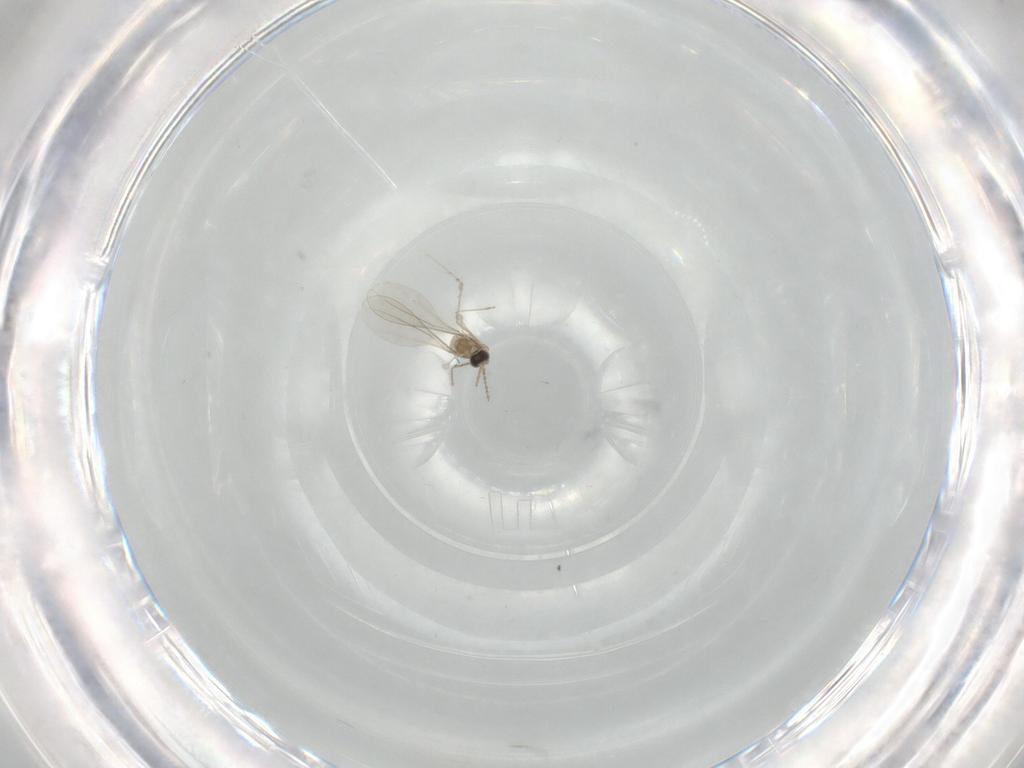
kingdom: Animalia
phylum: Arthropoda
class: Insecta
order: Diptera
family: Cecidomyiidae
